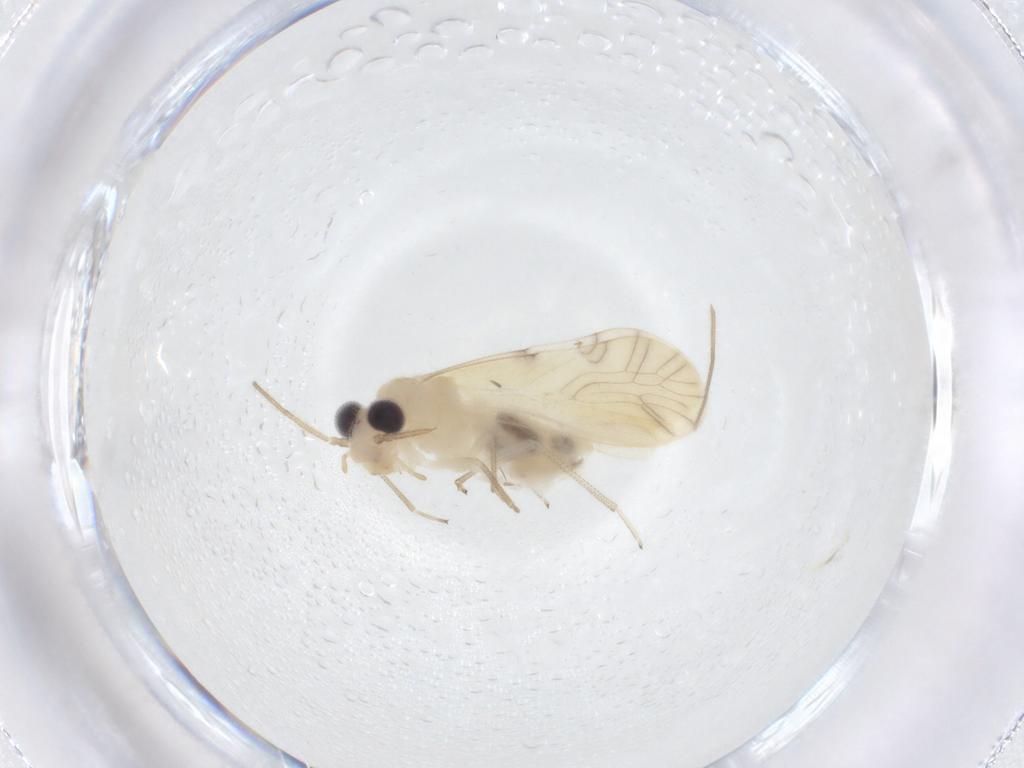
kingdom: Animalia
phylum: Arthropoda
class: Insecta
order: Psocodea
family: Caeciliusidae
